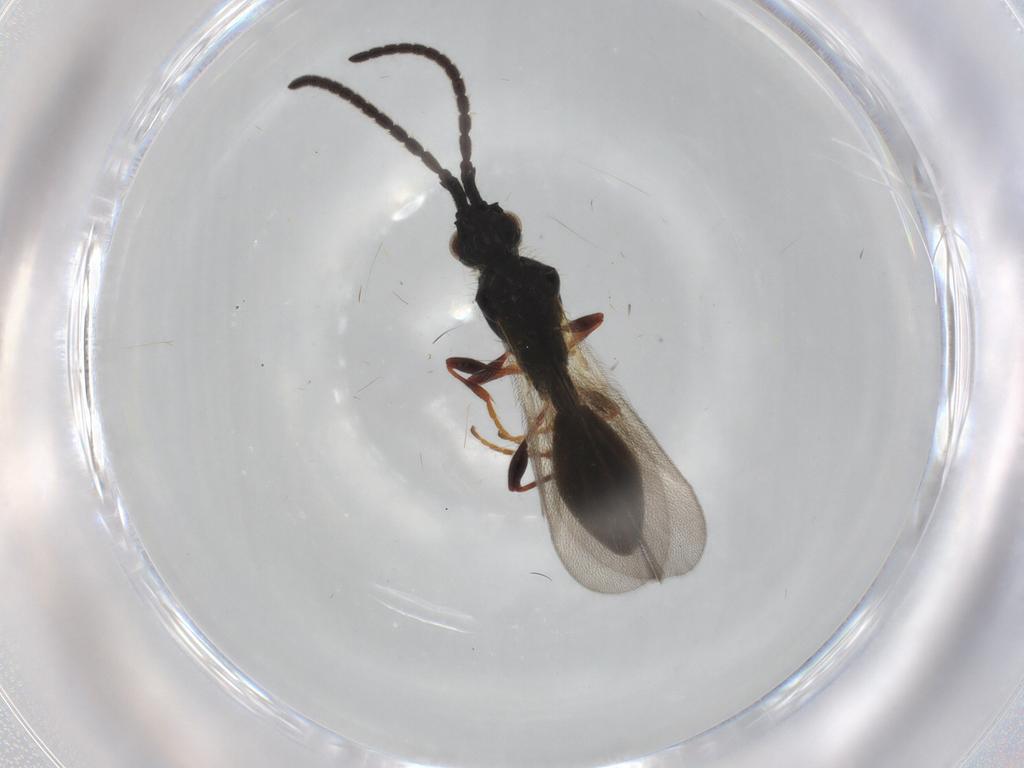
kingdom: Animalia
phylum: Arthropoda
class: Insecta
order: Hymenoptera
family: Diapriidae
